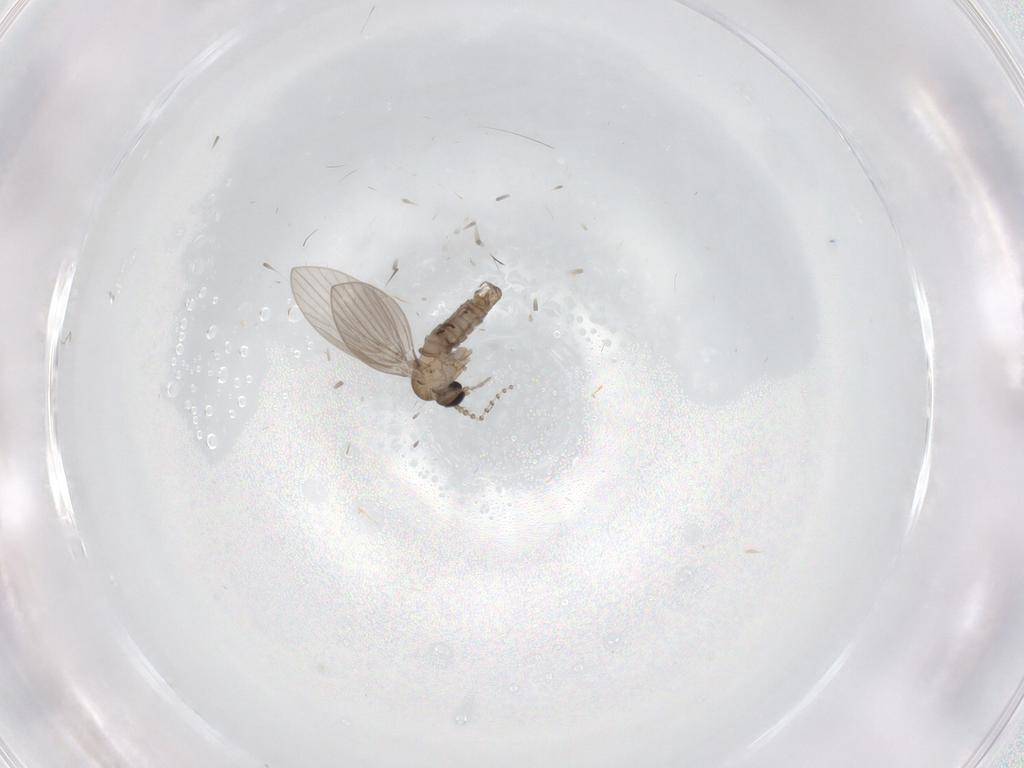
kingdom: Animalia
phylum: Arthropoda
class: Insecta
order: Diptera
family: Psychodidae
